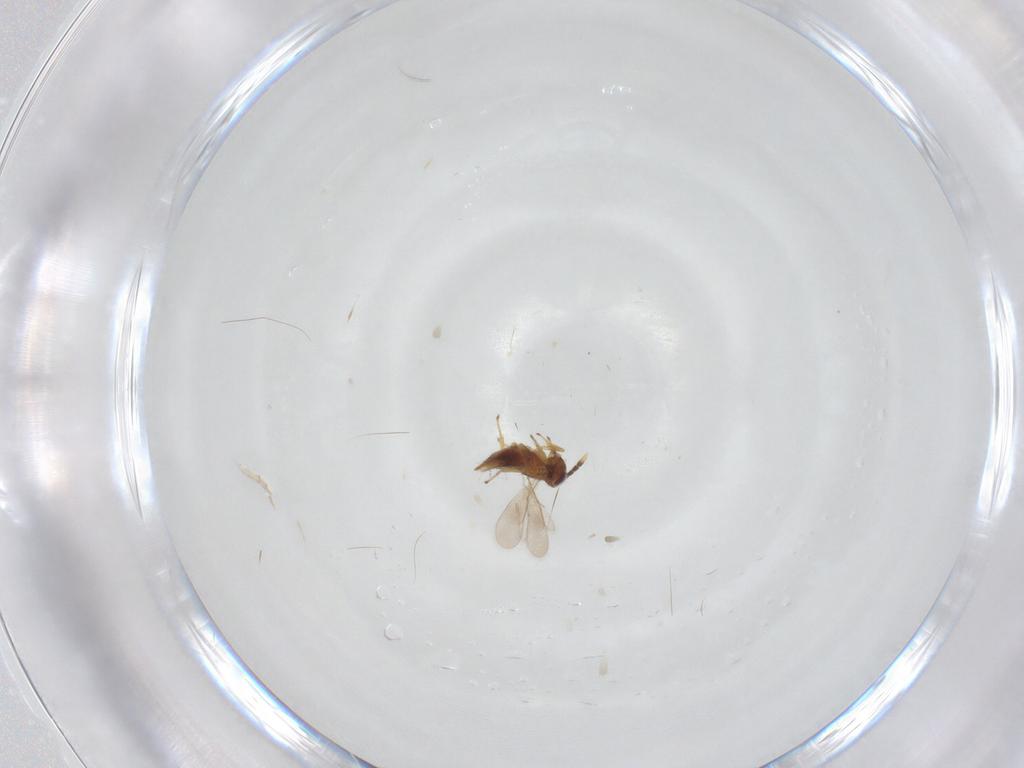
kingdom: Animalia
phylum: Arthropoda
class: Insecta
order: Hymenoptera
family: Aphelinidae
